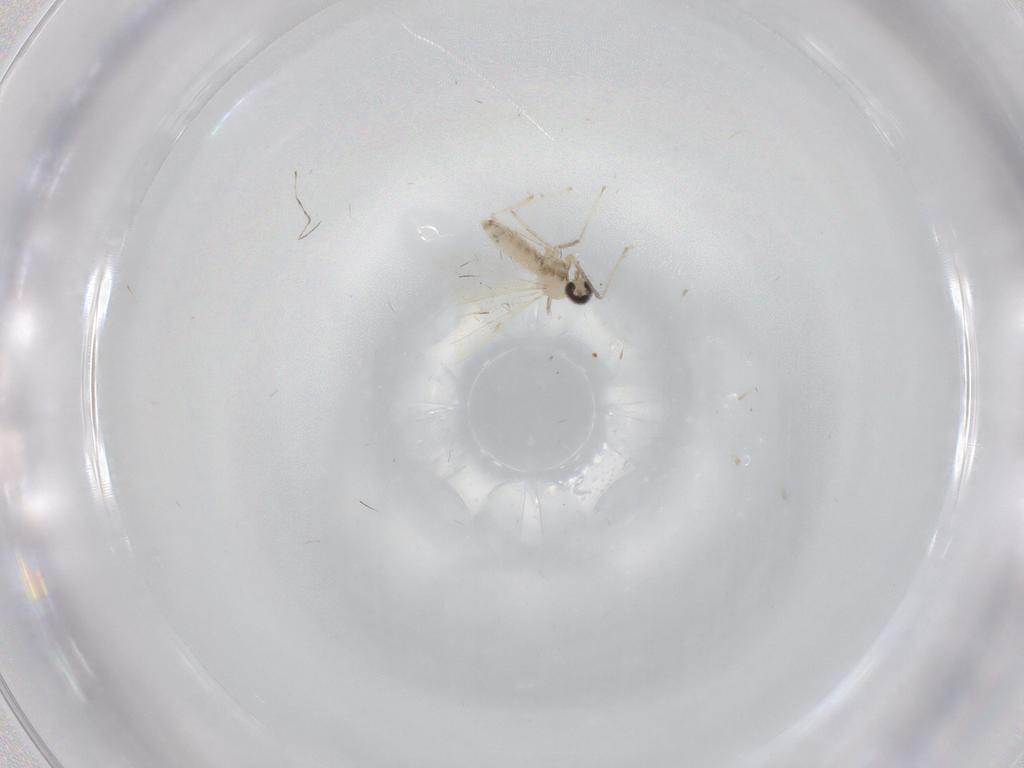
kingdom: Animalia
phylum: Arthropoda
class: Insecta
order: Diptera
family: Cecidomyiidae
